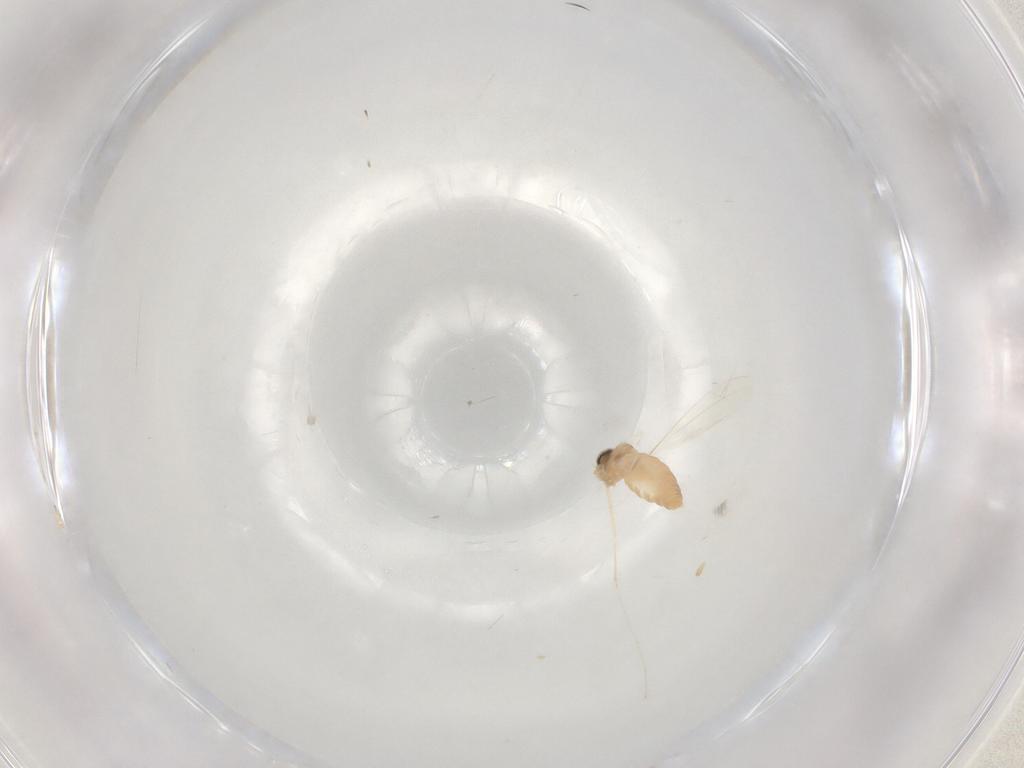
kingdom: Animalia
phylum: Arthropoda
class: Insecta
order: Diptera
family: Cecidomyiidae
